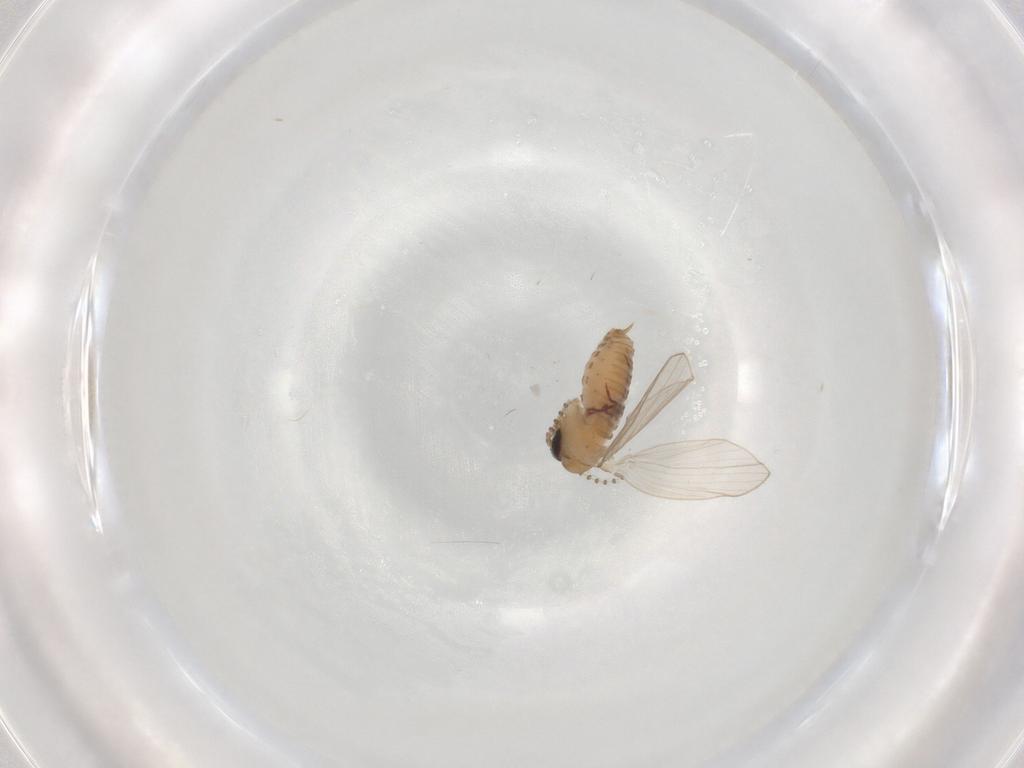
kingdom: Animalia
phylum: Arthropoda
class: Insecta
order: Diptera
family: Psychodidae
